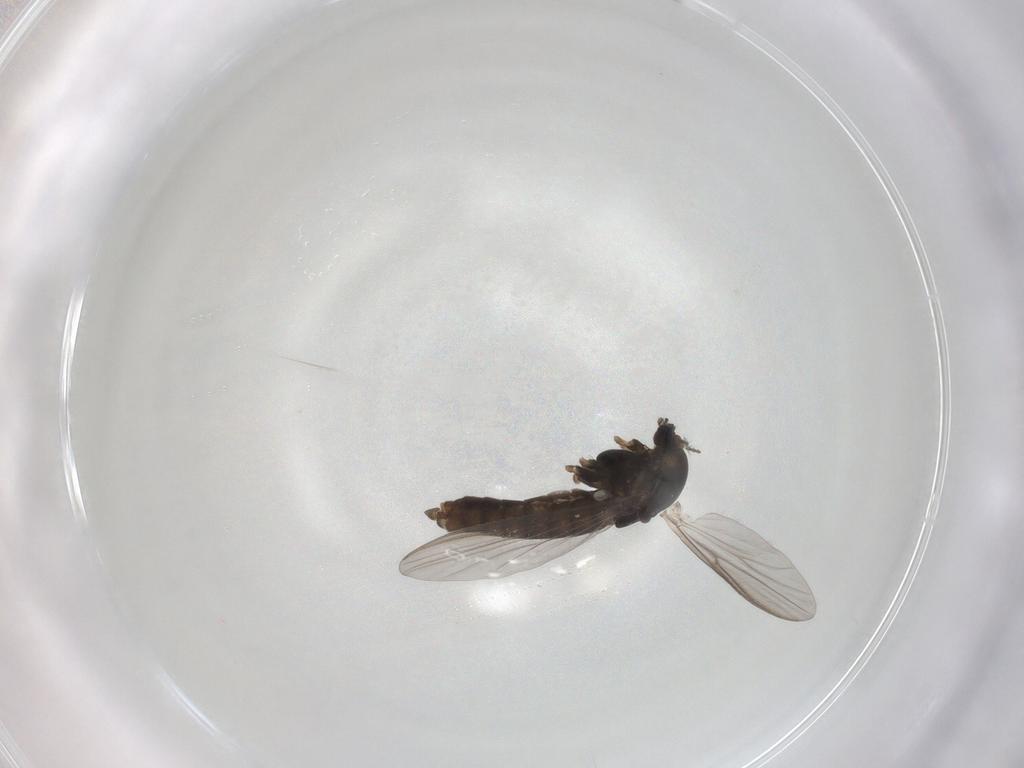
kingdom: Animalia
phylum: Arthropoda
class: Insecta
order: Diptera
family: Chironomidae
